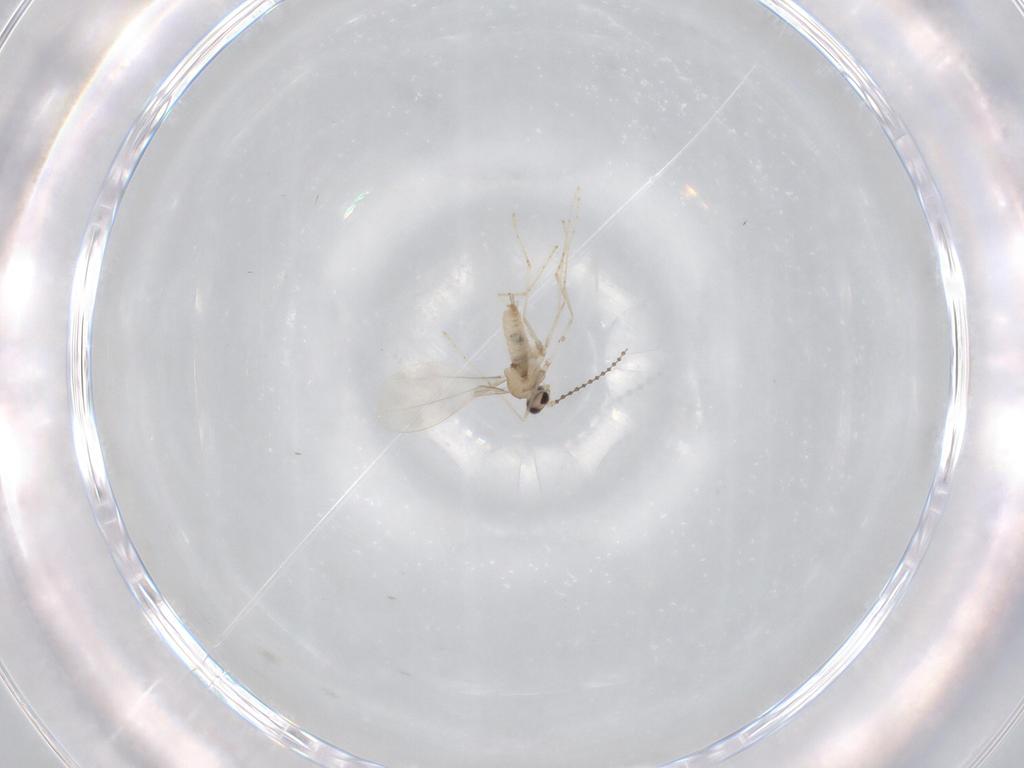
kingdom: Animalia
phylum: Arthropoda
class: Insecta
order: Diptera
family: Cecidomyiidae
